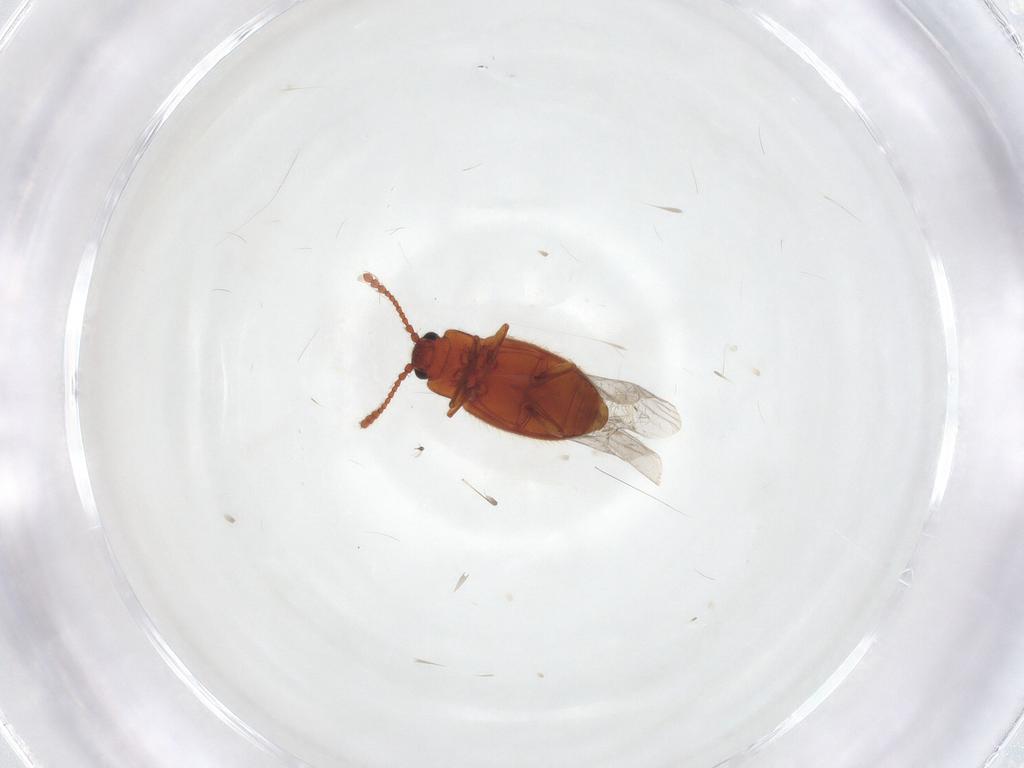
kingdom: Animalia
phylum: Arthropoda
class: Insecta
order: Coleoptera
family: Cryptophagidae
